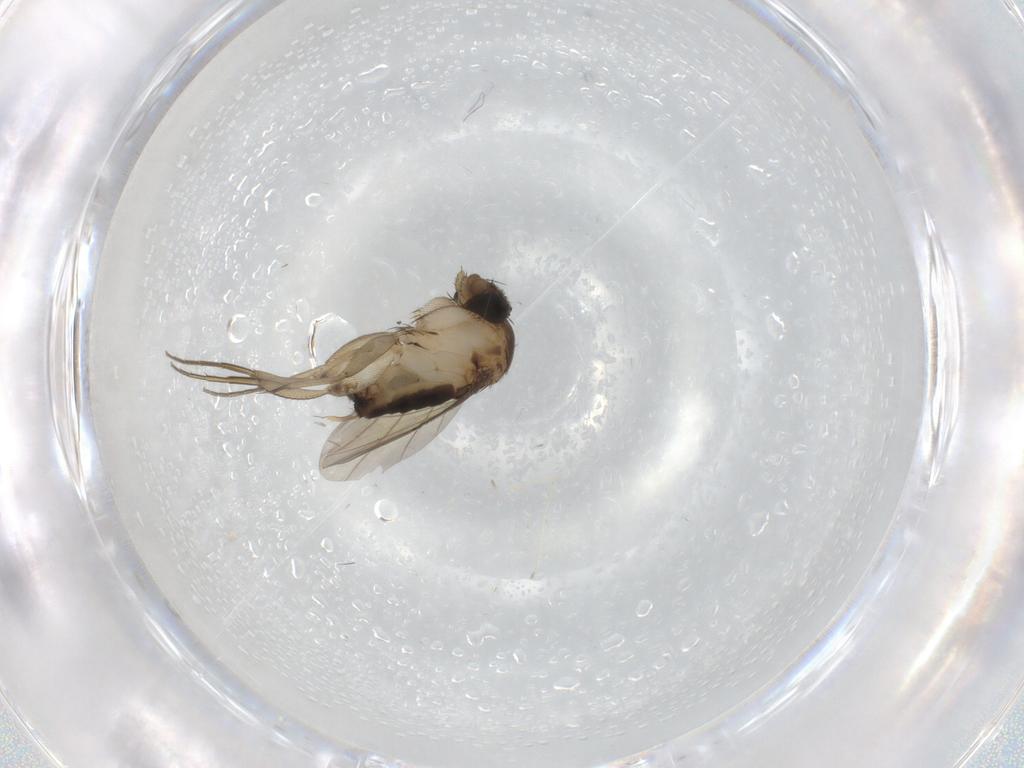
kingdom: Animalia
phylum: Arthropoda
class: Insecta
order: Diptera
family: Phoridae
